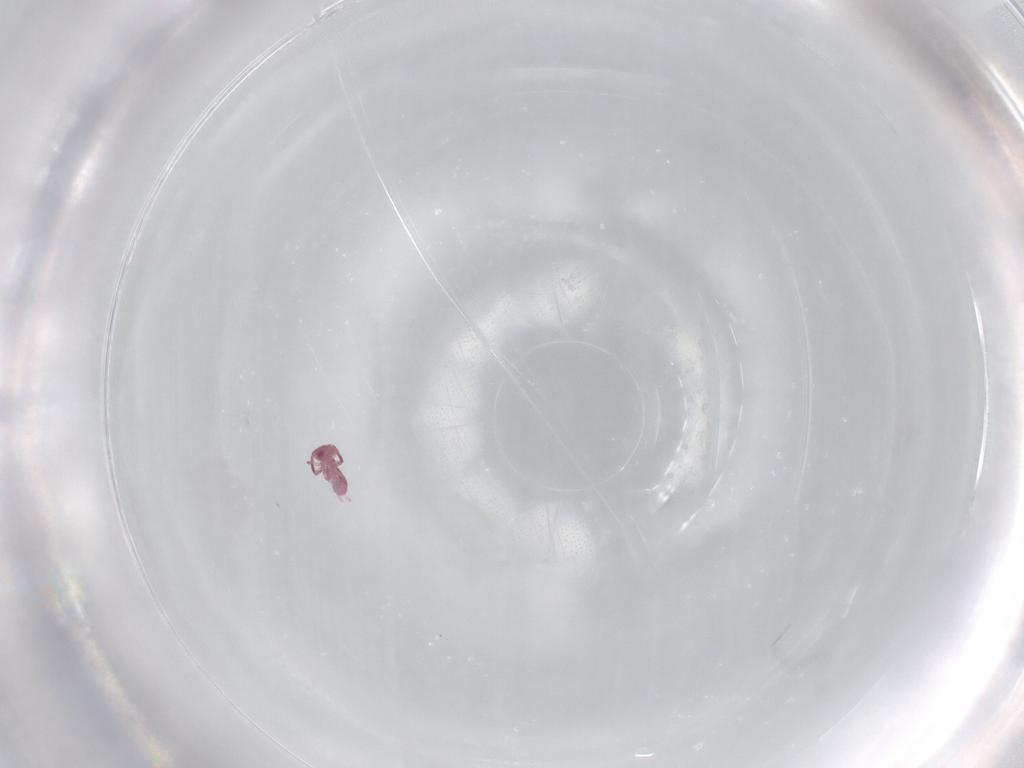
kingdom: Animalia
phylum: Arthropoda
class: Collembola
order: Symphypleona
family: Sminthurididae
